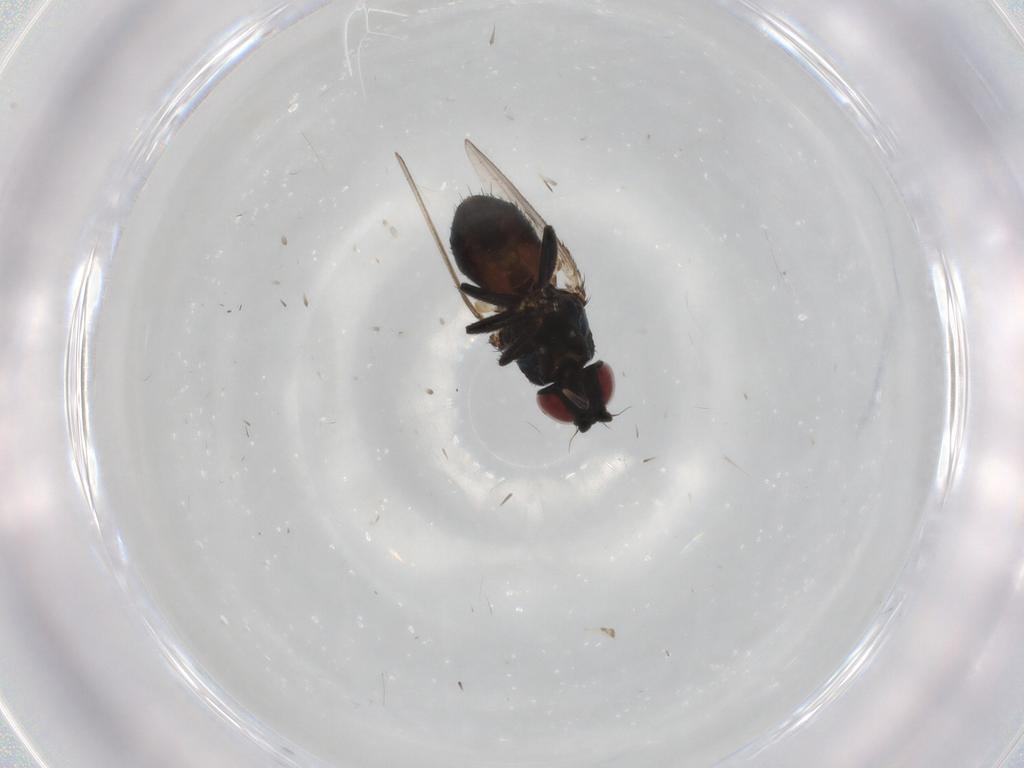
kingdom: Animalia
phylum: Arthropoda
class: Insecta
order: Diptera
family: Milichiidae
